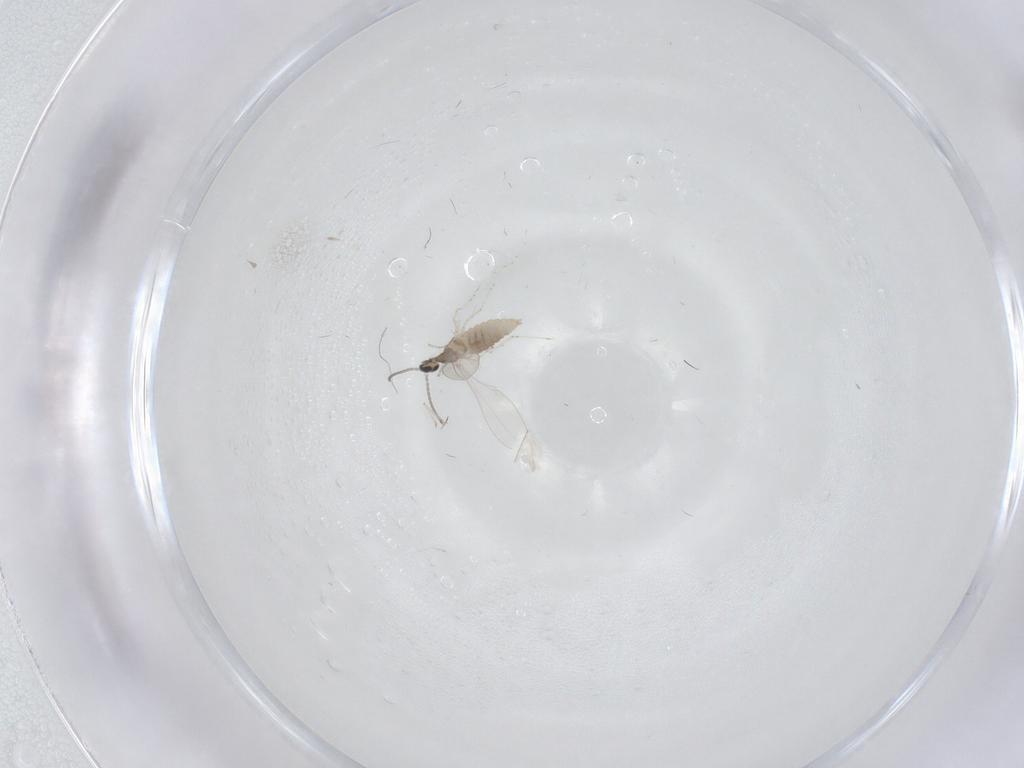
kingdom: Animalia
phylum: Arthropoda
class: Insecta
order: Diptera
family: Cecidomyiidae
